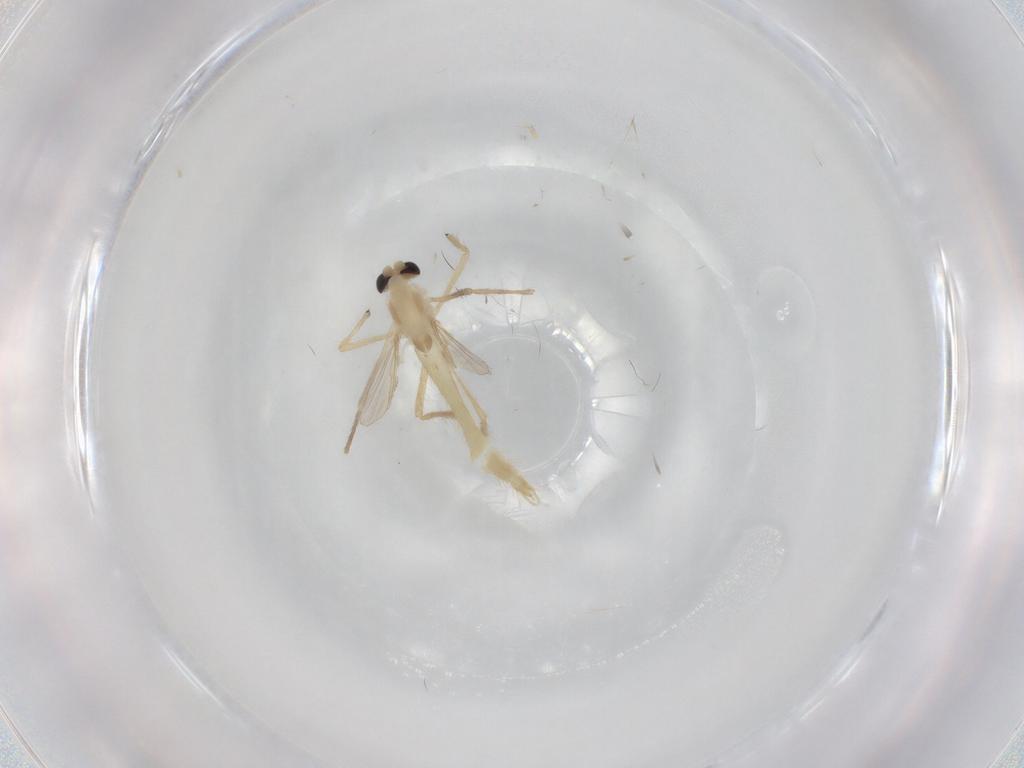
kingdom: Animalia
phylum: Arthropoda
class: Insecta
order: Diptera
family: Chironomidae
